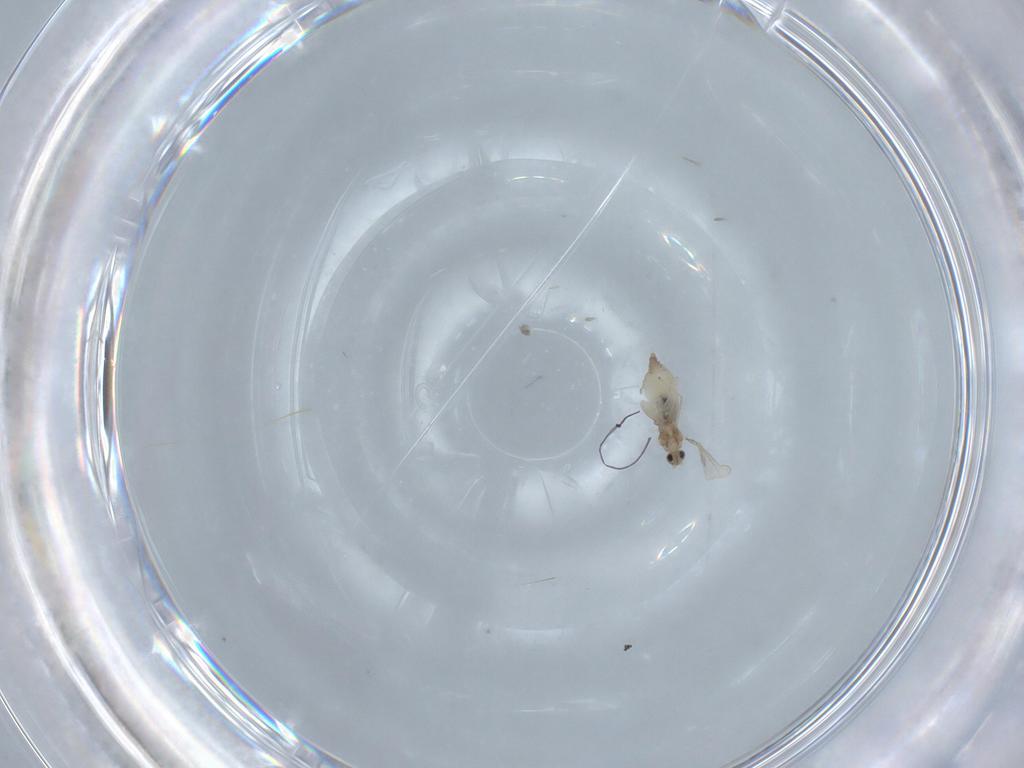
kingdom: Animalia
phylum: Arthropoda
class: Insecta
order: Diptera
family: Cecidomyiidae
